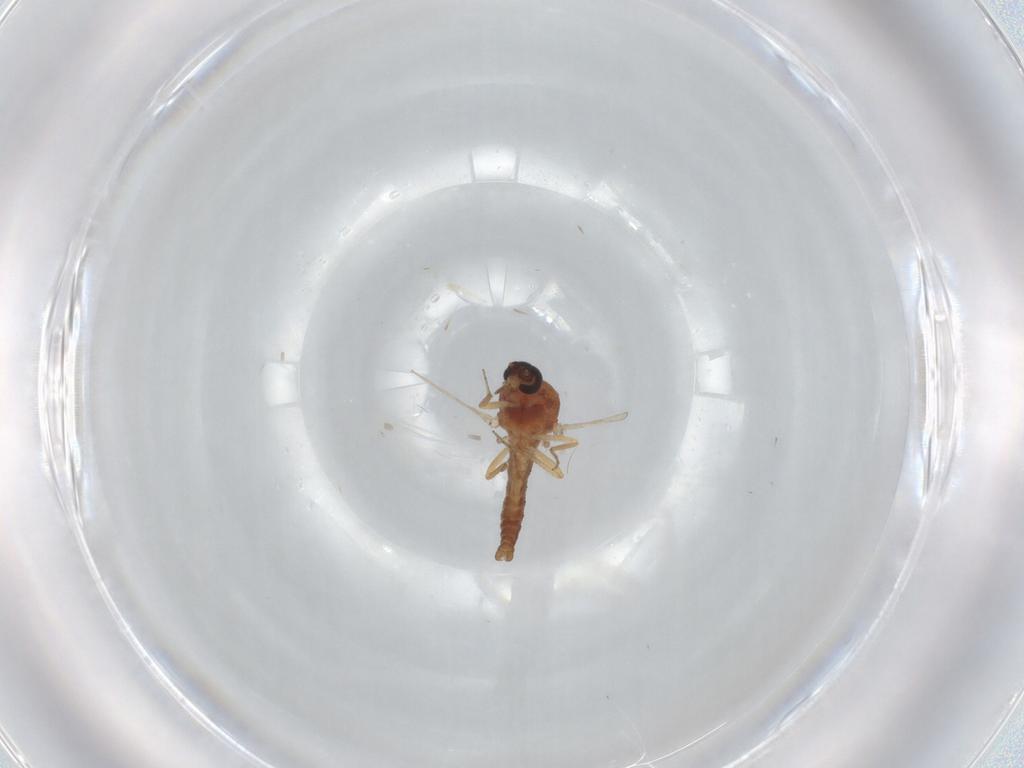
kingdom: Animalia
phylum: Arthropoda
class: Insecta
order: Diptera
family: Ceratopogonidae
